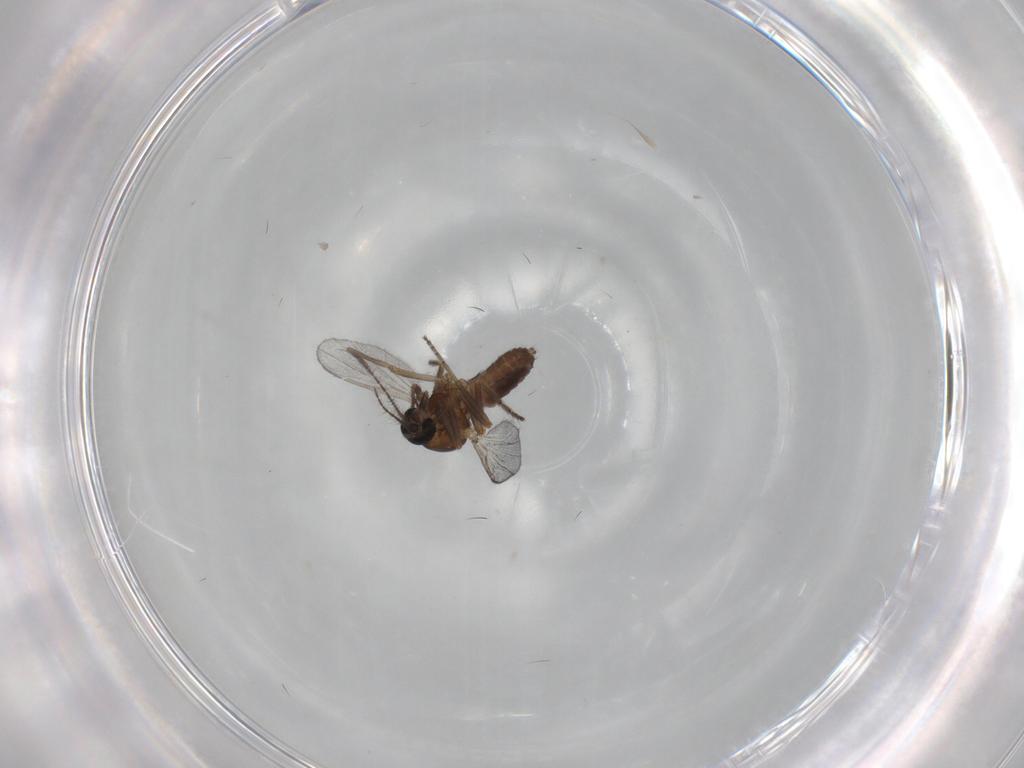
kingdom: Animalia
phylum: Arthropoda
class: Insecta
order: Diptera
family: Ceratopogonidae
